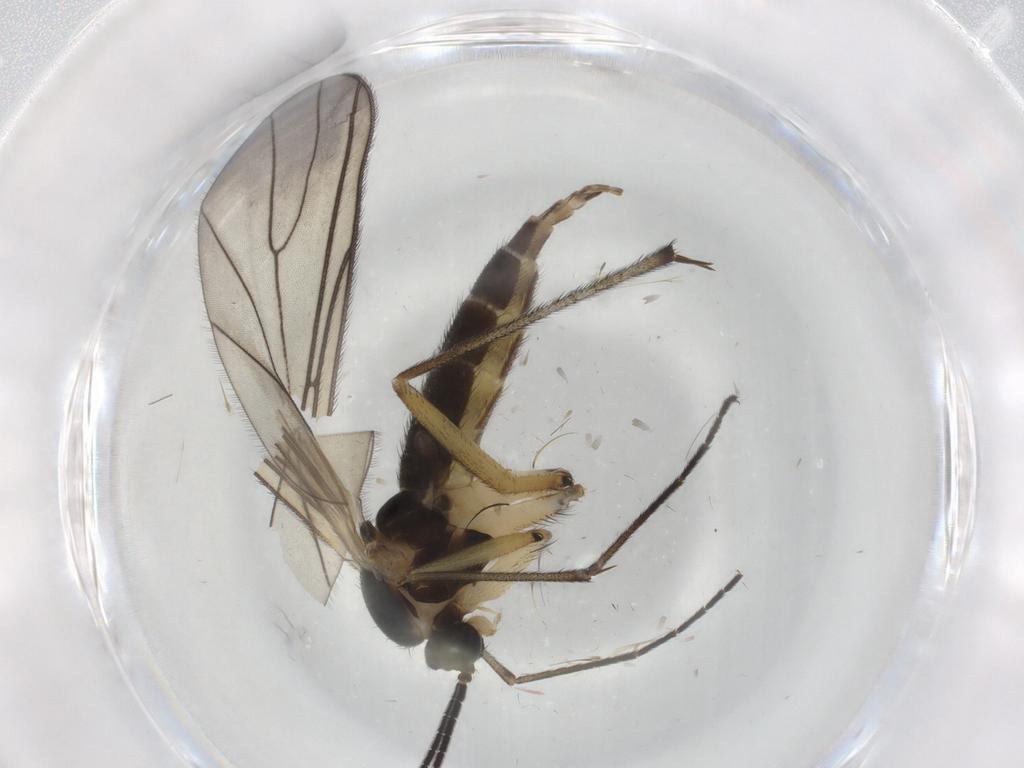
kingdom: Animalia
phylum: Arthropoda
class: Insecta
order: Diptera
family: Sciaridae
